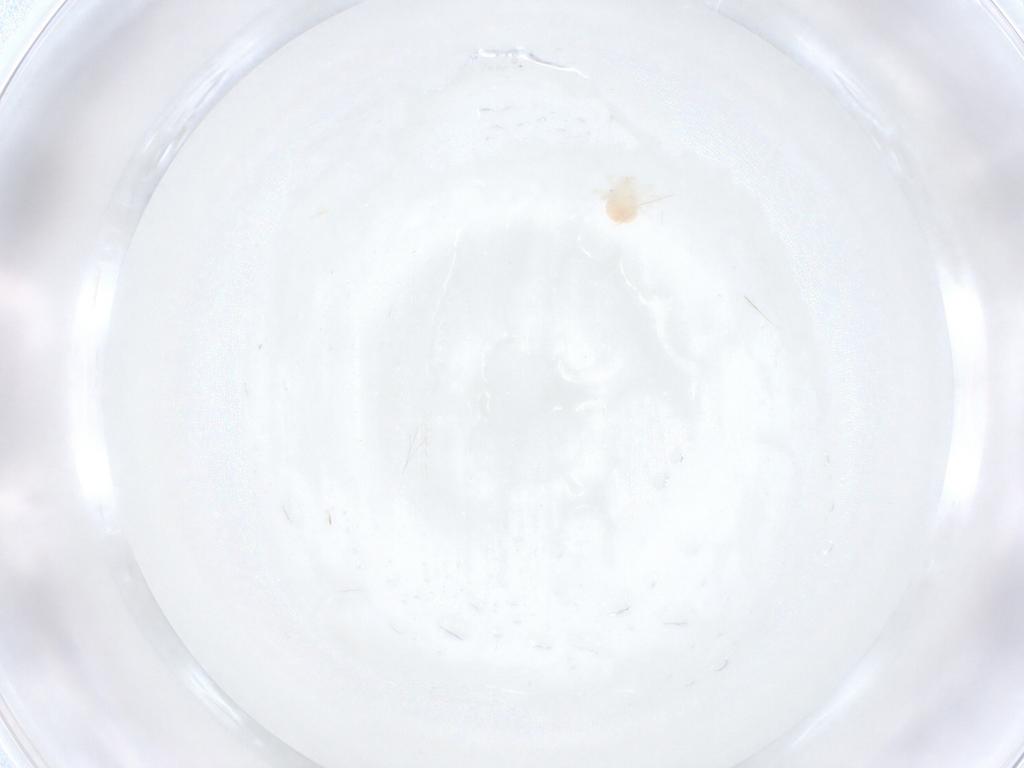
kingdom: Animalia
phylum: Arthropoda
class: Arachnida
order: Trombidiformes
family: Anystidae
